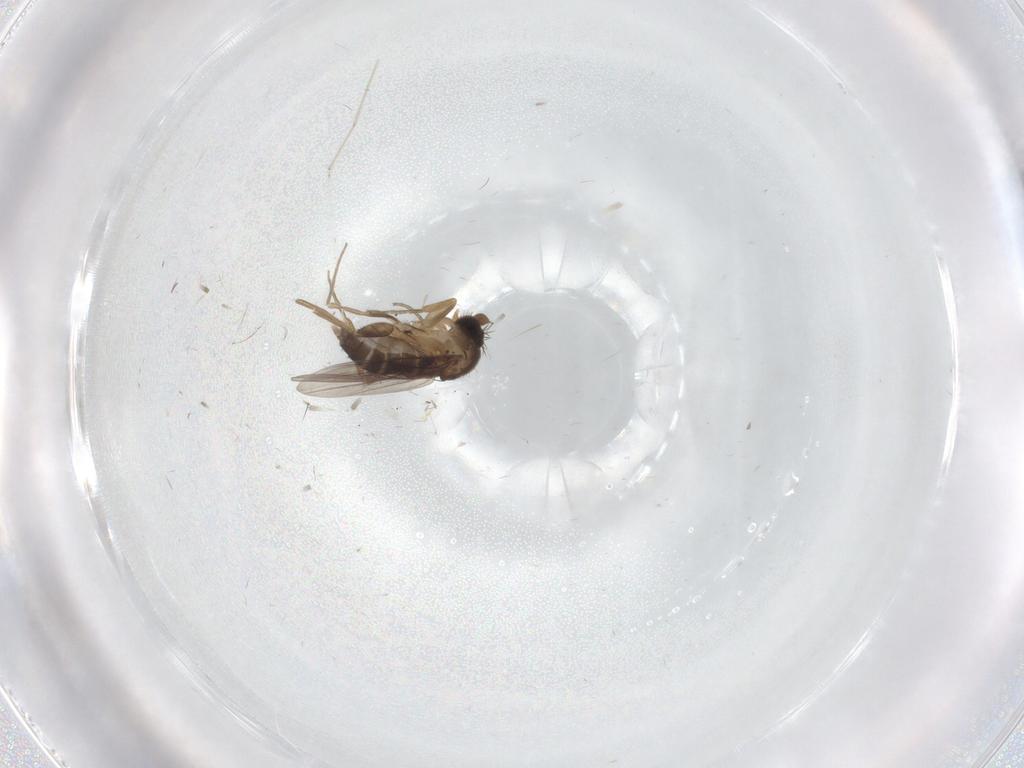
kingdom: Animalia
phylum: Arthropoda
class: Insecta
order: Diptera
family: Phoridae
